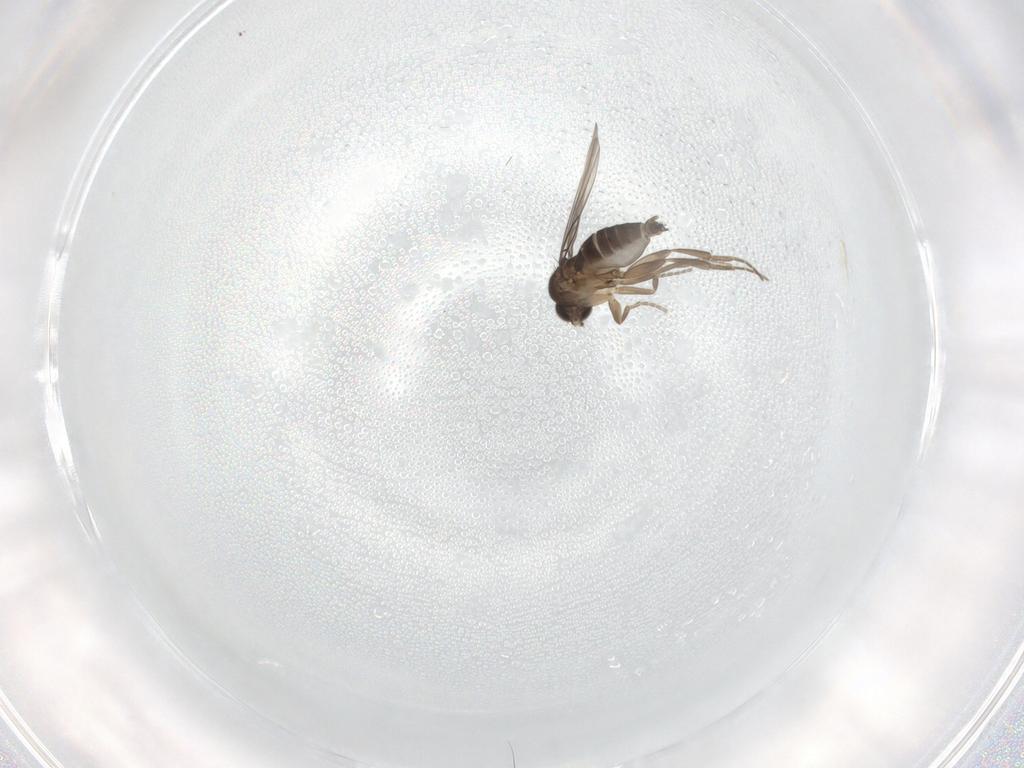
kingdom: Animalia
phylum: Arthropoda
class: Insecta
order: Diptera
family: Phoridae
